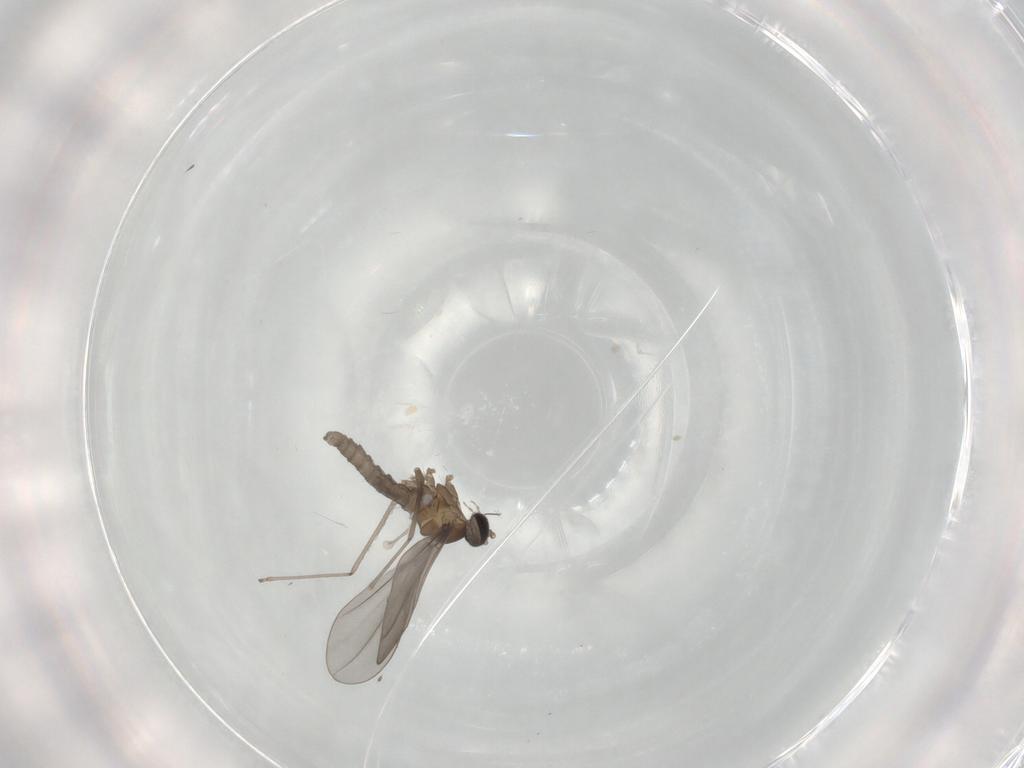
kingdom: Animalia
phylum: Arthropoda
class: Insecta
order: Diptera
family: Cecidomyiidae
